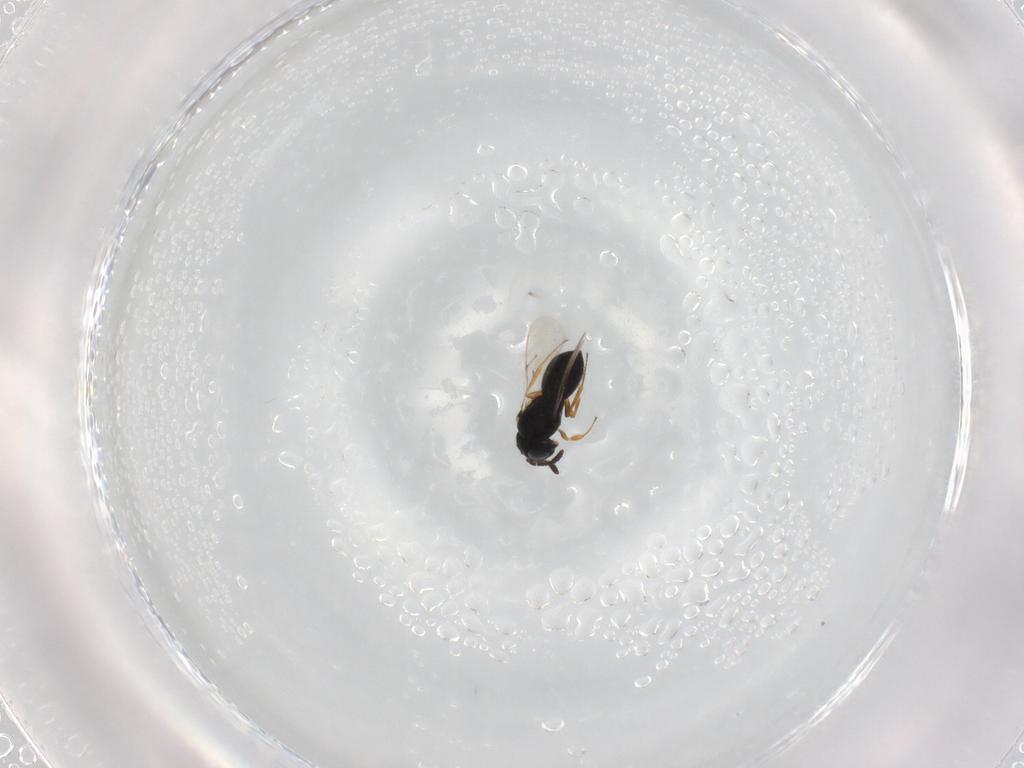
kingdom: Animalia
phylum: Arthropoda
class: Insecta
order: Hymenoptera
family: Scelionidae
